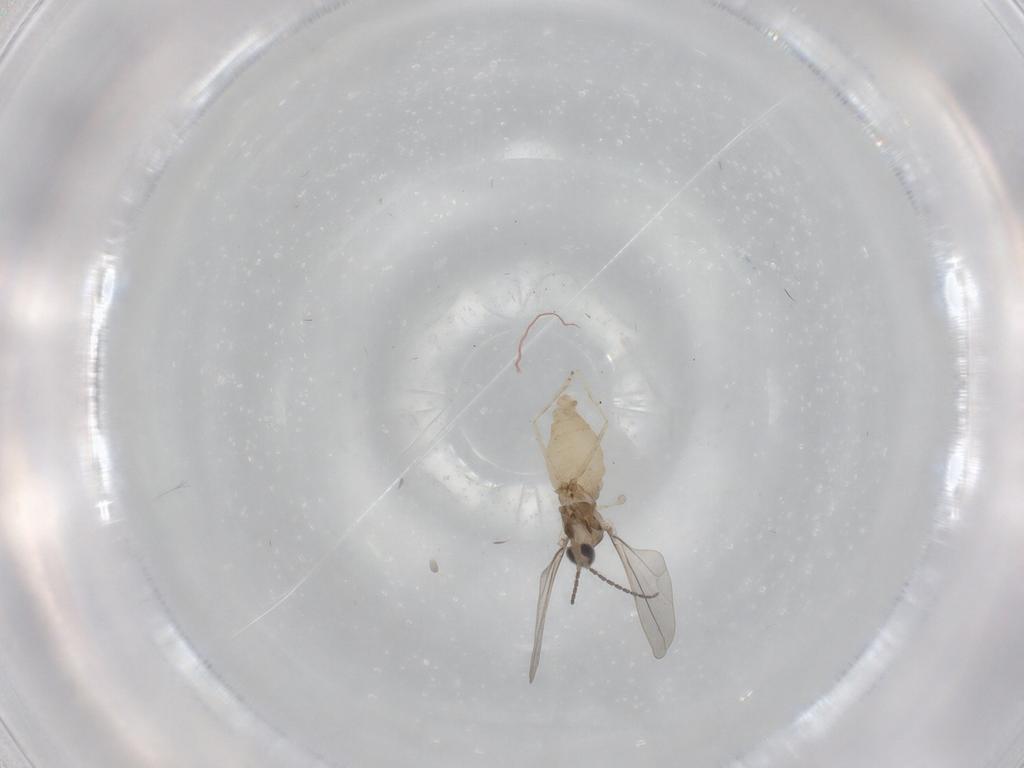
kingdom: Animalia
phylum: Arthropoda
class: Insecta
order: Diptera
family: Cecidomyiidae
